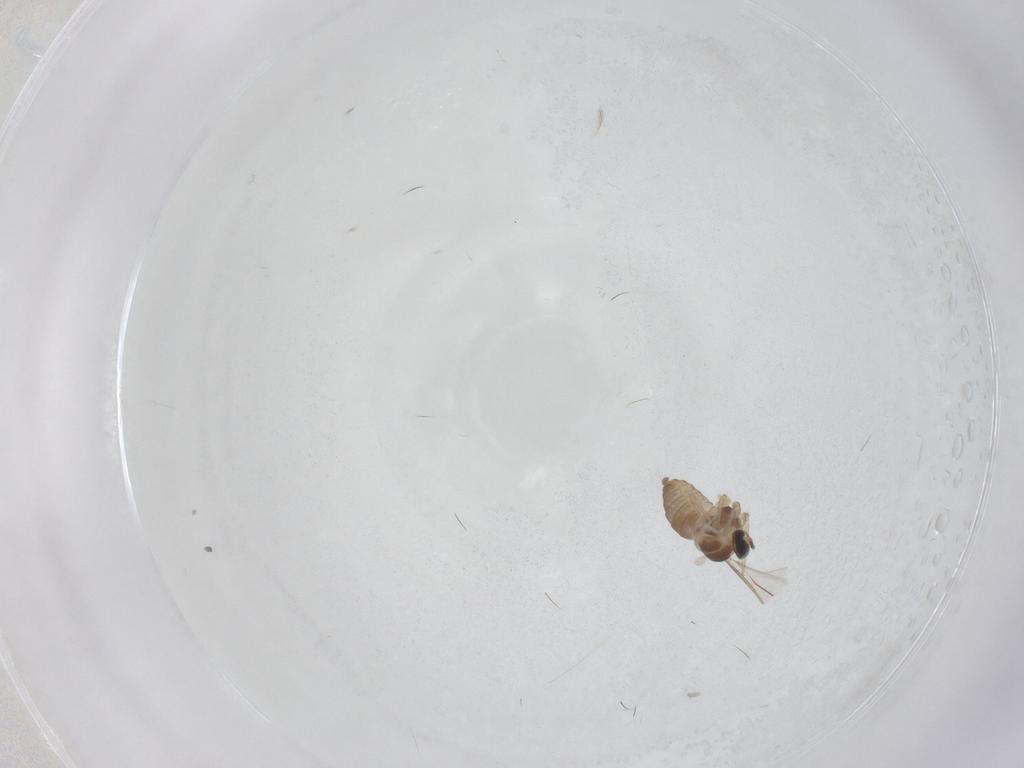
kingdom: Animalia
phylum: Arthropoda
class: Insecta
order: Diptera
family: Cecidomyiidae
